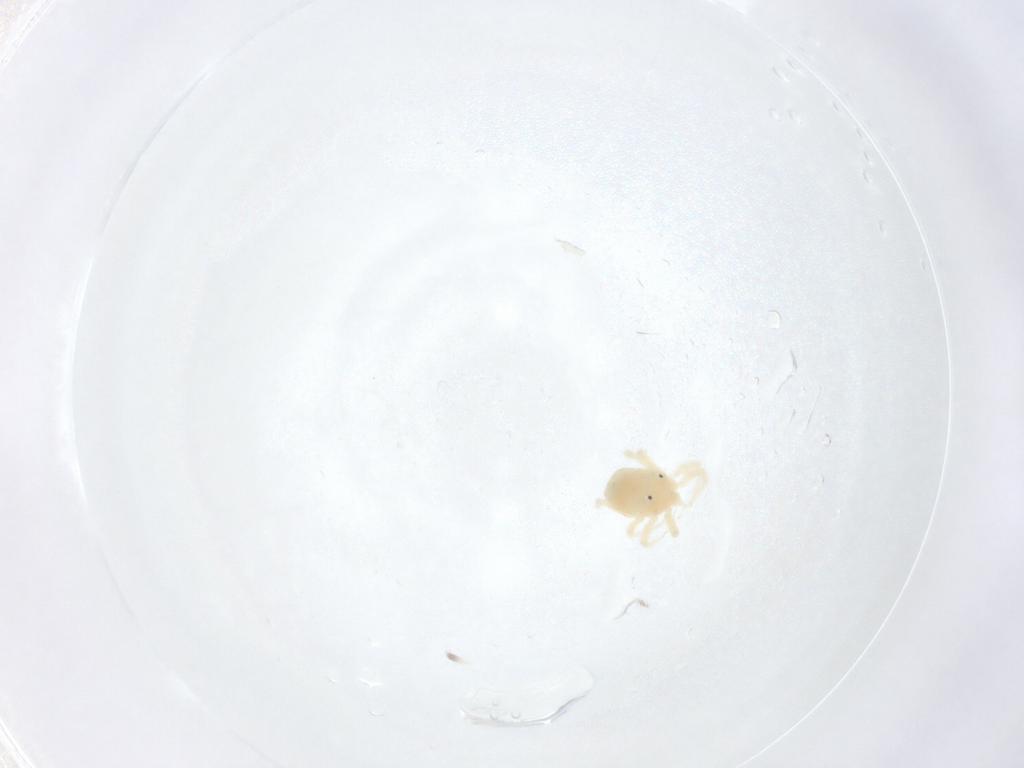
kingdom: Animalia
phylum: Arthropoda
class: Arachnida
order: Trombidiformes
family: Anystidae
